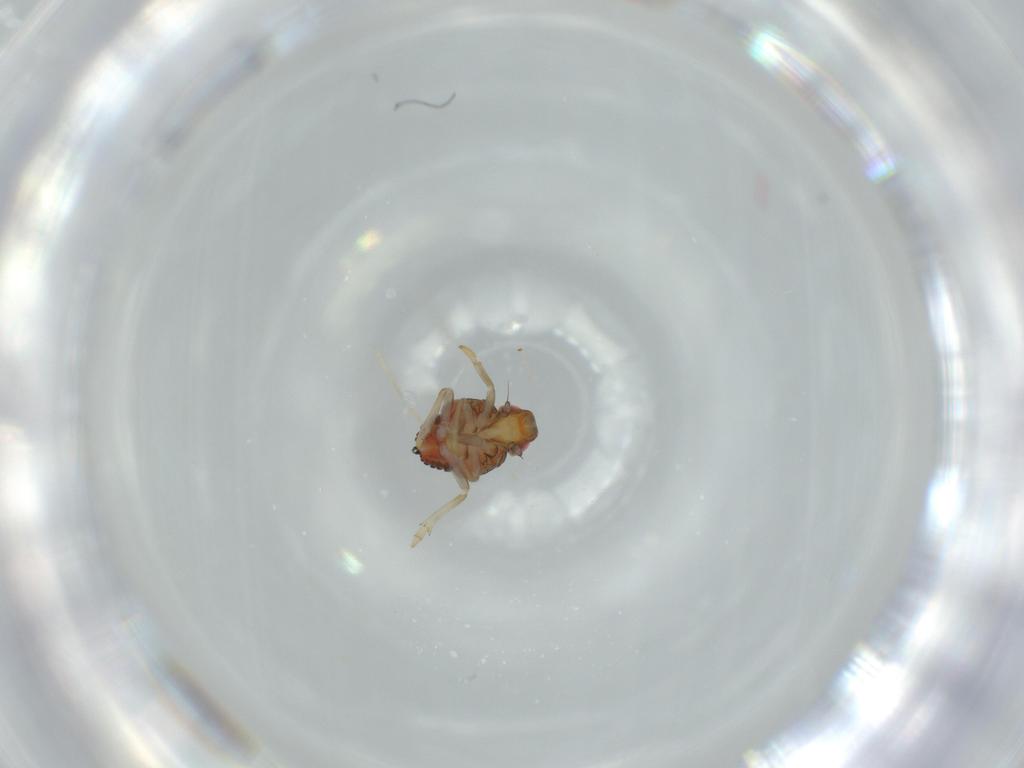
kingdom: Animalia
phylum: Arthropoda
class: Insecta
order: Hemiptera
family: Issidae
